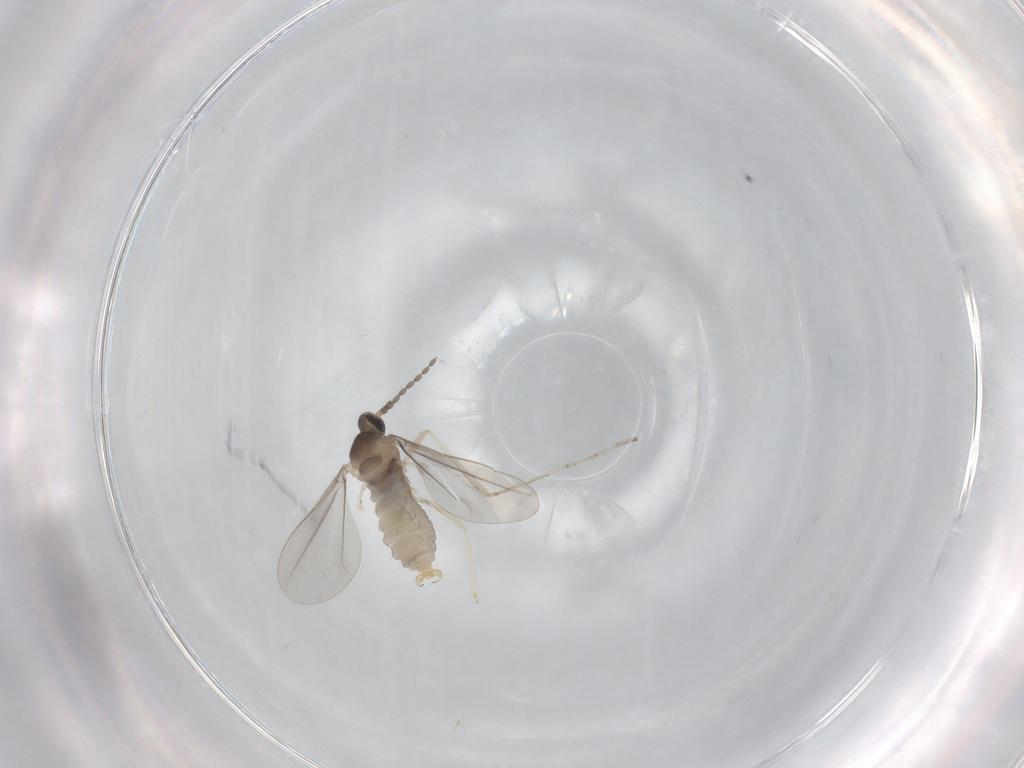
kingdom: Animalia
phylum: Arthropoda
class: Insecta
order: Diptera
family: Cecidomyiidae
